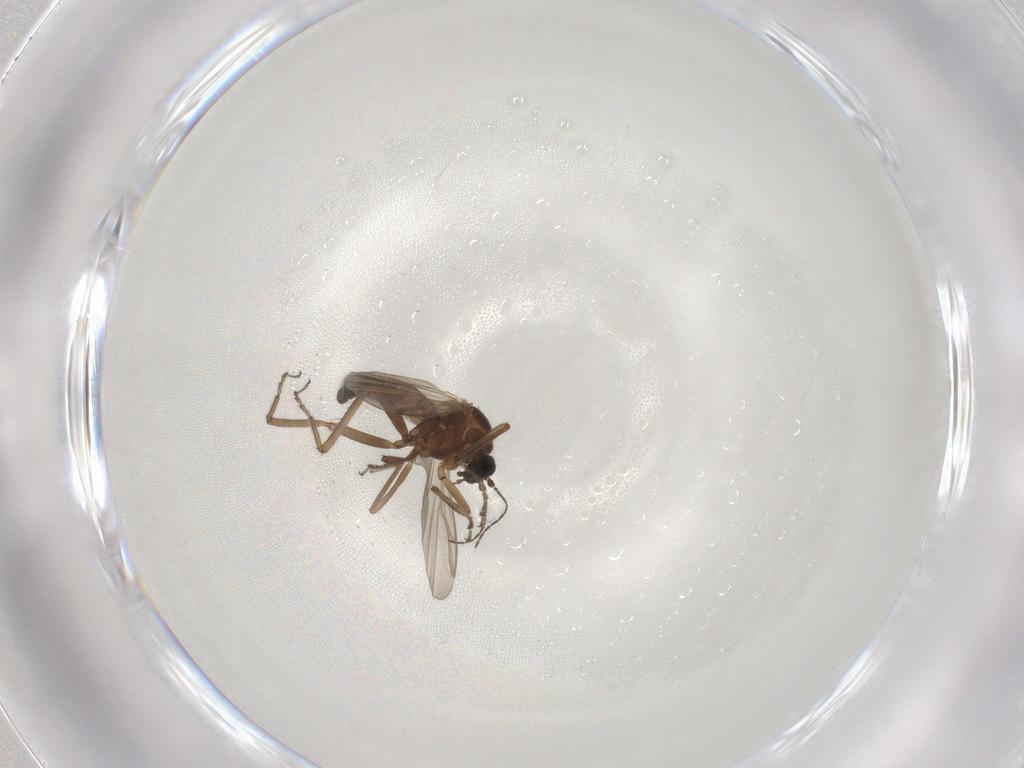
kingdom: Animalia
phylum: Arthropoda
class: Insecta
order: Diptera
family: Ceratopogonidae
